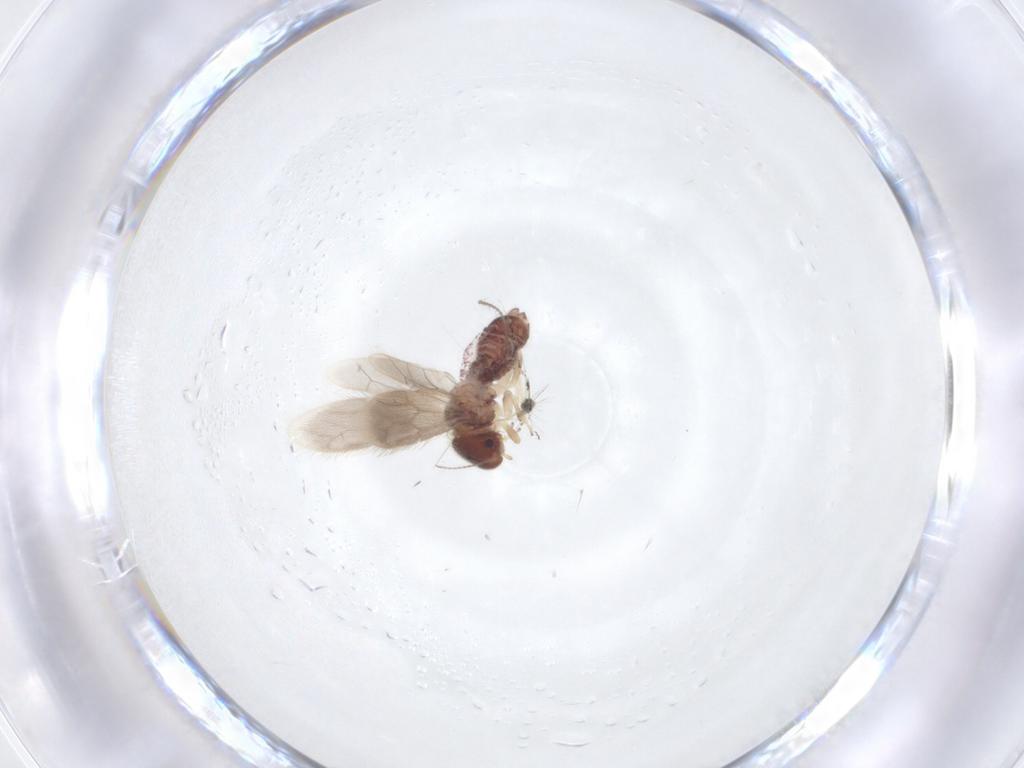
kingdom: Animalia
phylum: Arthropoda
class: Insecta
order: Psocodea
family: Archipsocidae
